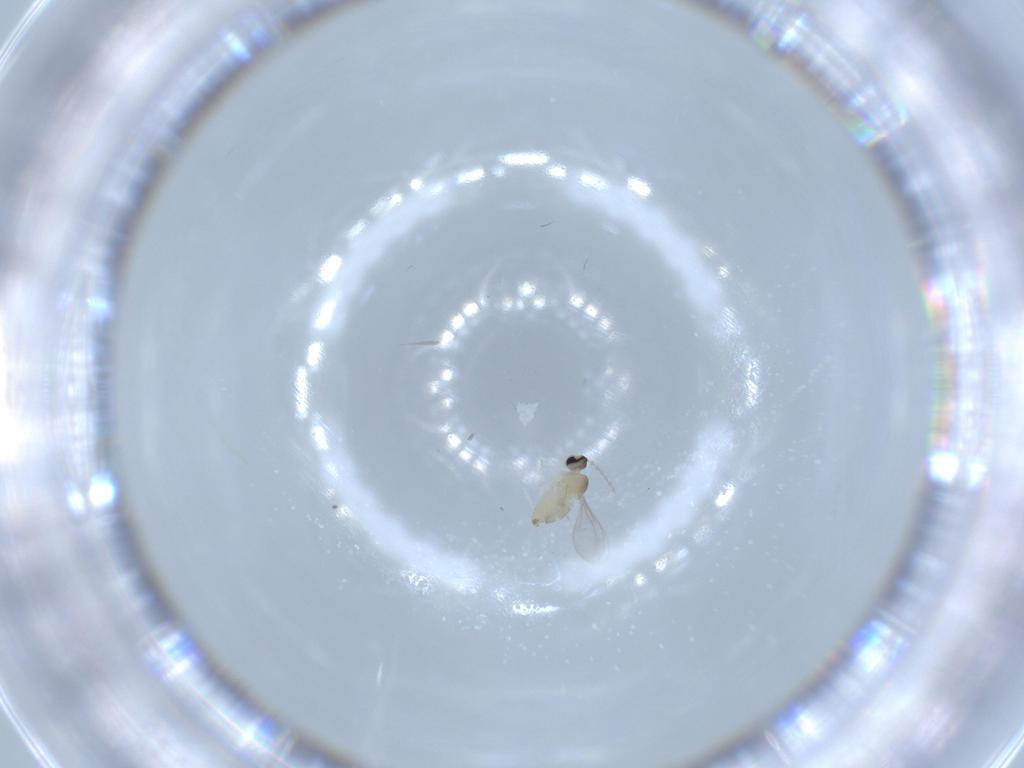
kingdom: Animalia
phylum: Arthropoda
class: Insecta
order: Diptera
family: Cecidomyiidae
